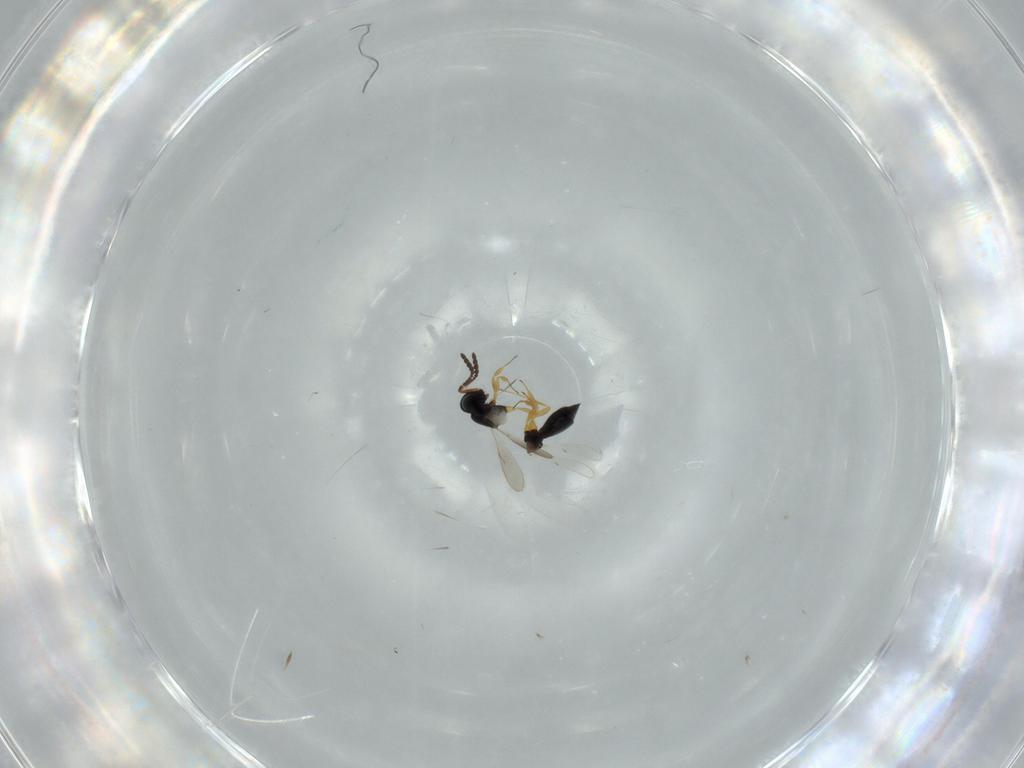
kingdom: Animalia
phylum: Arthropoda
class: Insecta
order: Hymenoptera
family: Scelionidae
